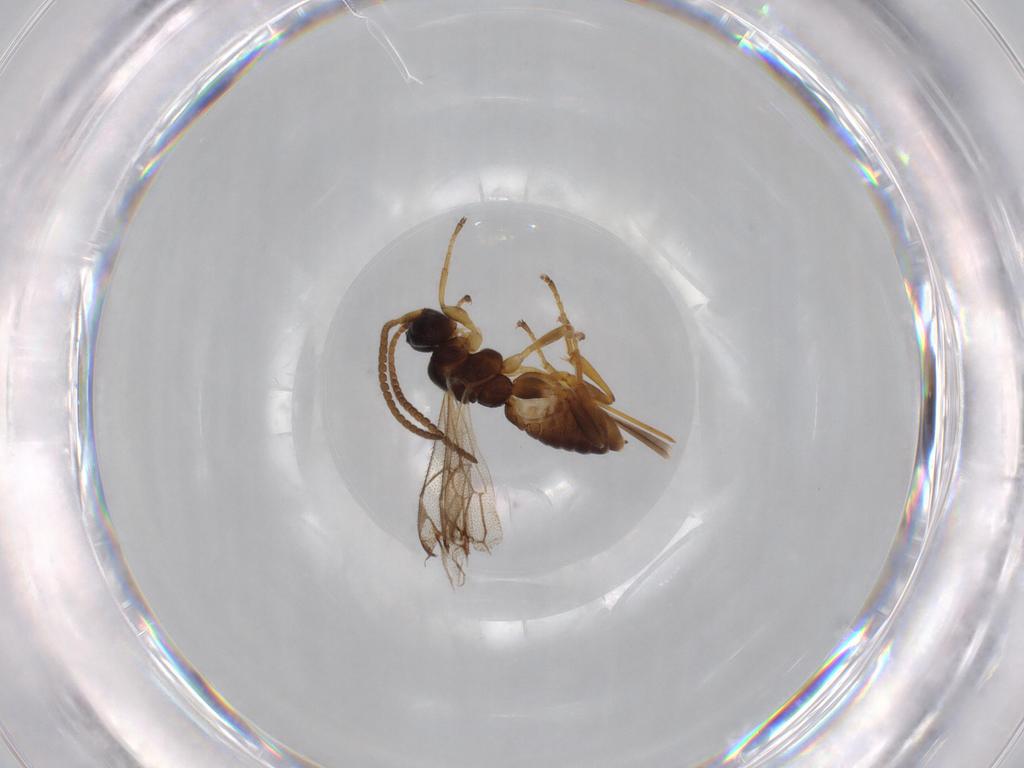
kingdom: Animalia
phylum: Arthropoda
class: Insecta
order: Hymenoptera
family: Ichneumonidae
